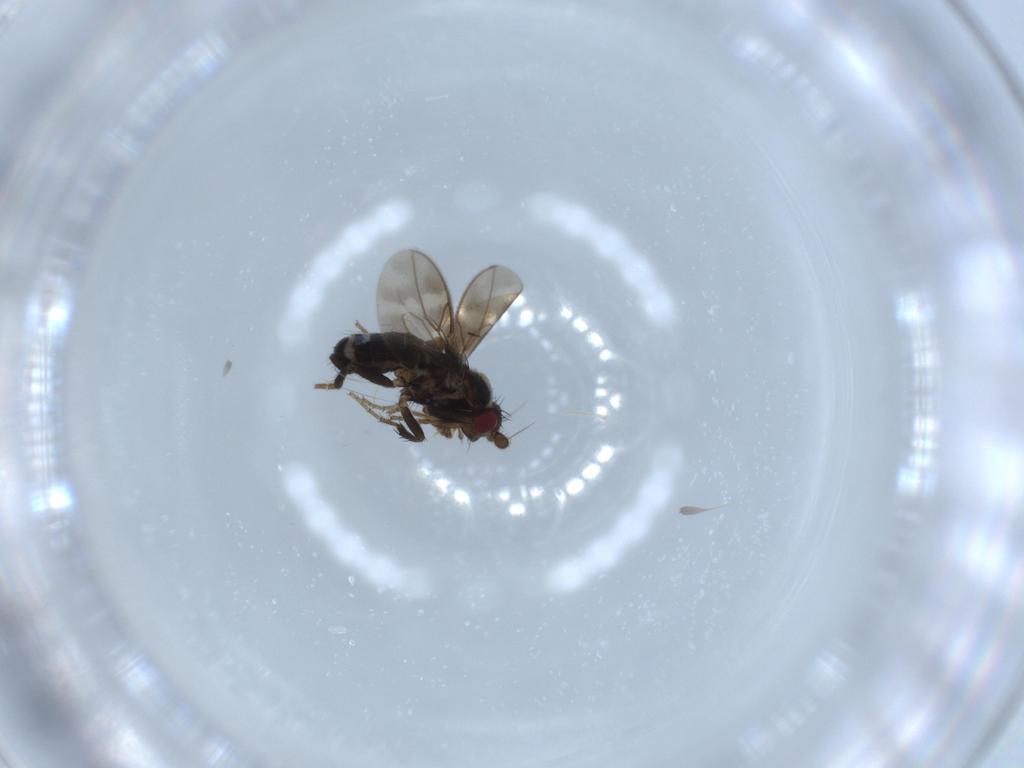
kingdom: Animalia
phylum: Arthropoda
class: Insecta
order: Diptera
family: Sphaeroceridae
